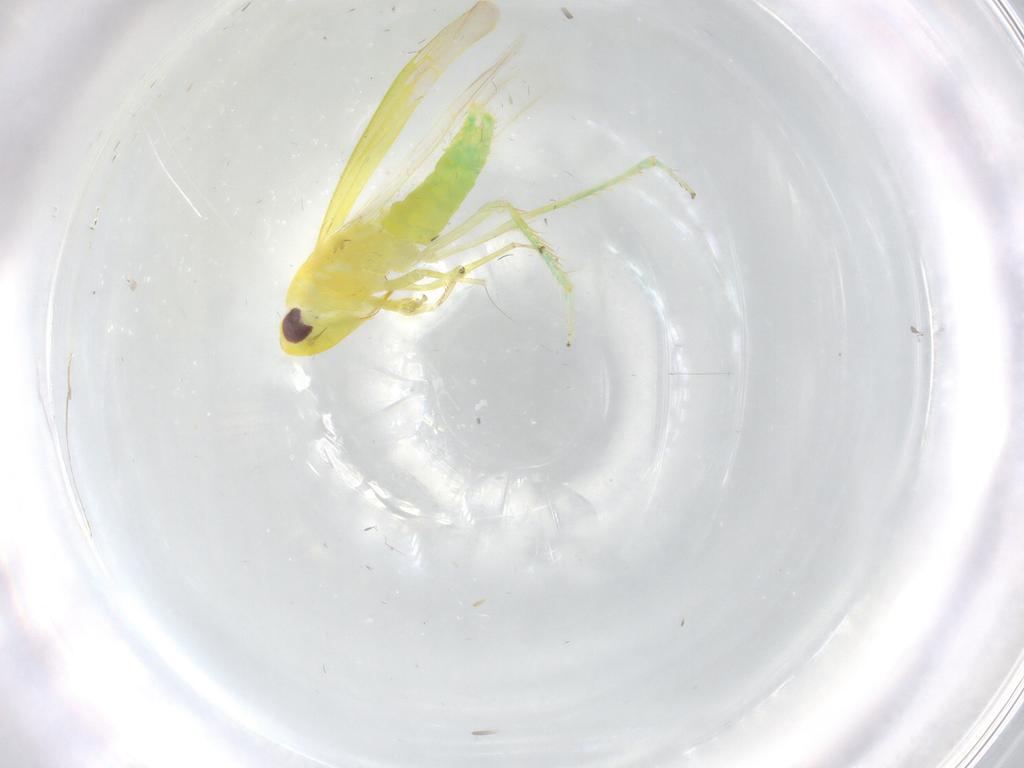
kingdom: Animalia
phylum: Arthropoda
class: Insecta
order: Hemiptera
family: Cicadellidae
